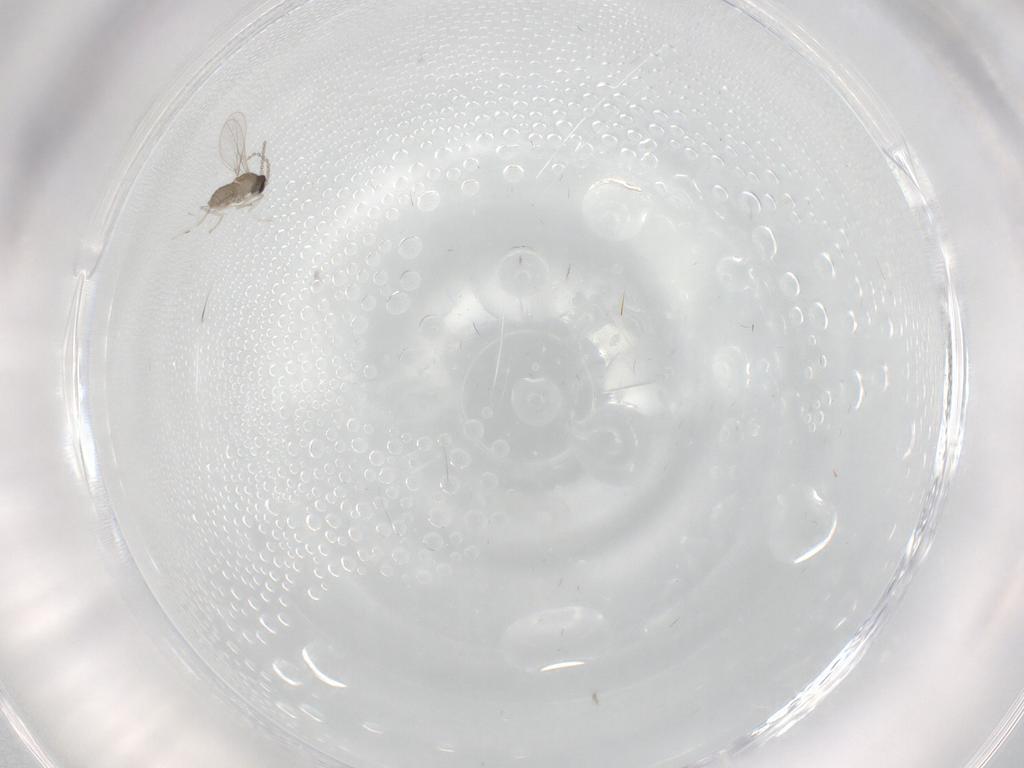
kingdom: Animalia
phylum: Arthropoda
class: Insecta
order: Diptera
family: Cecidomyiidae
